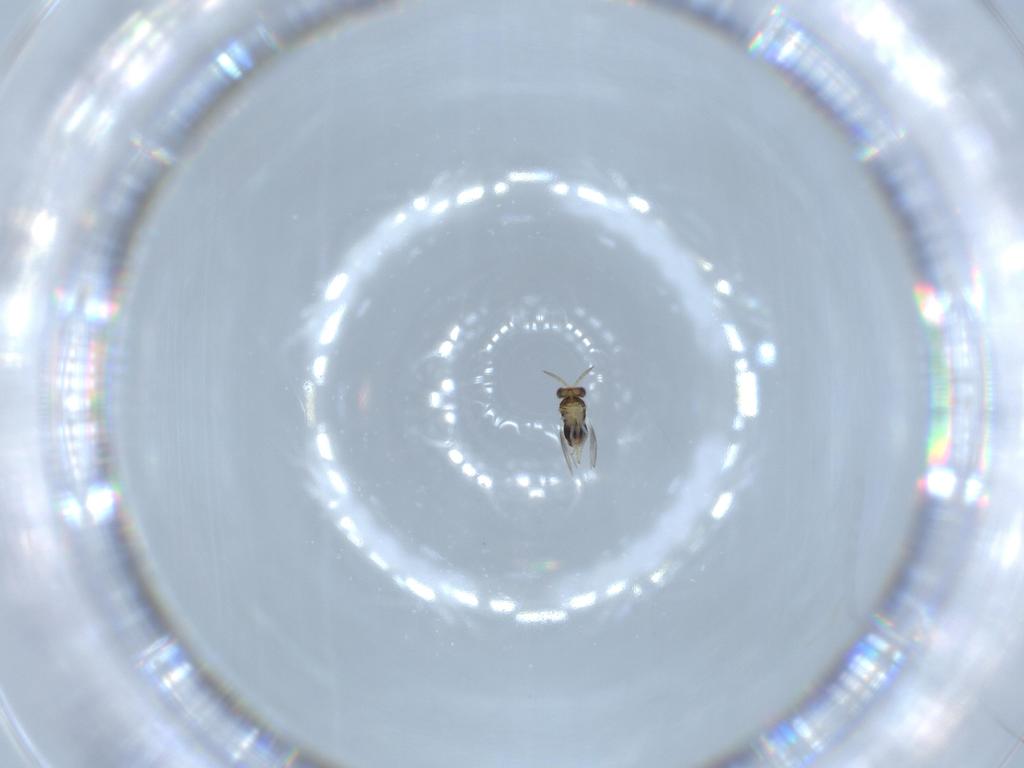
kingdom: Animalia
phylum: Arthropoda
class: Insecta
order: Hymenoptera
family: Aphelinidae
